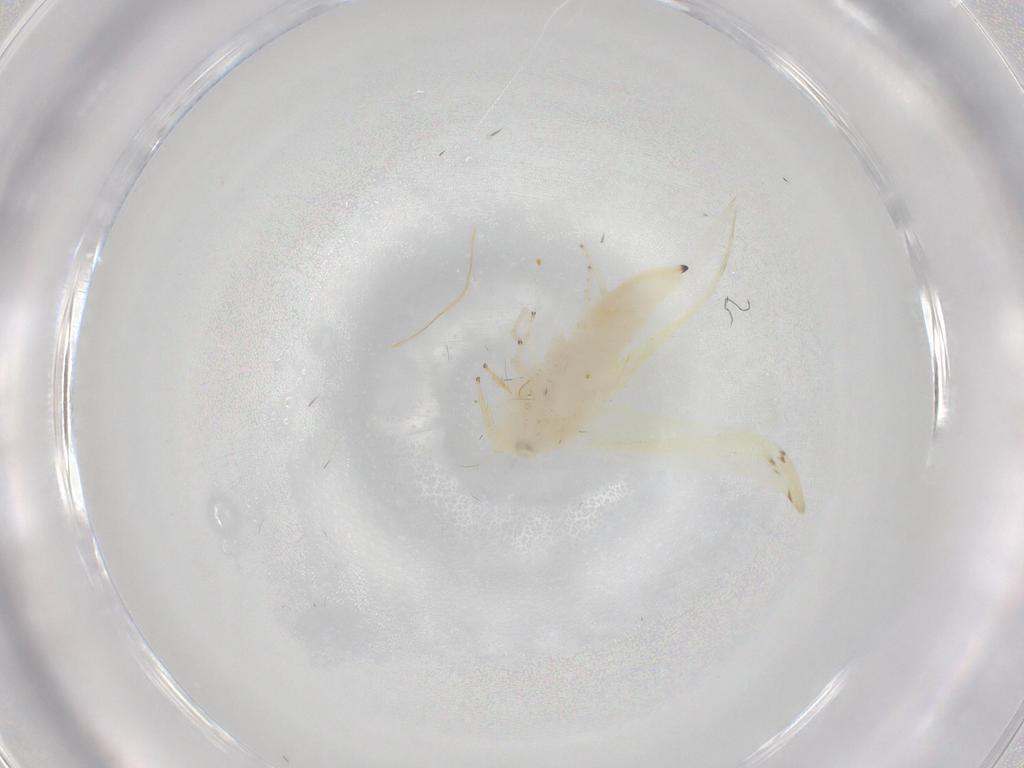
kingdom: Animalia
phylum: Arthropoda
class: Insecta
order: Hemiptera
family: Cicadellidae
